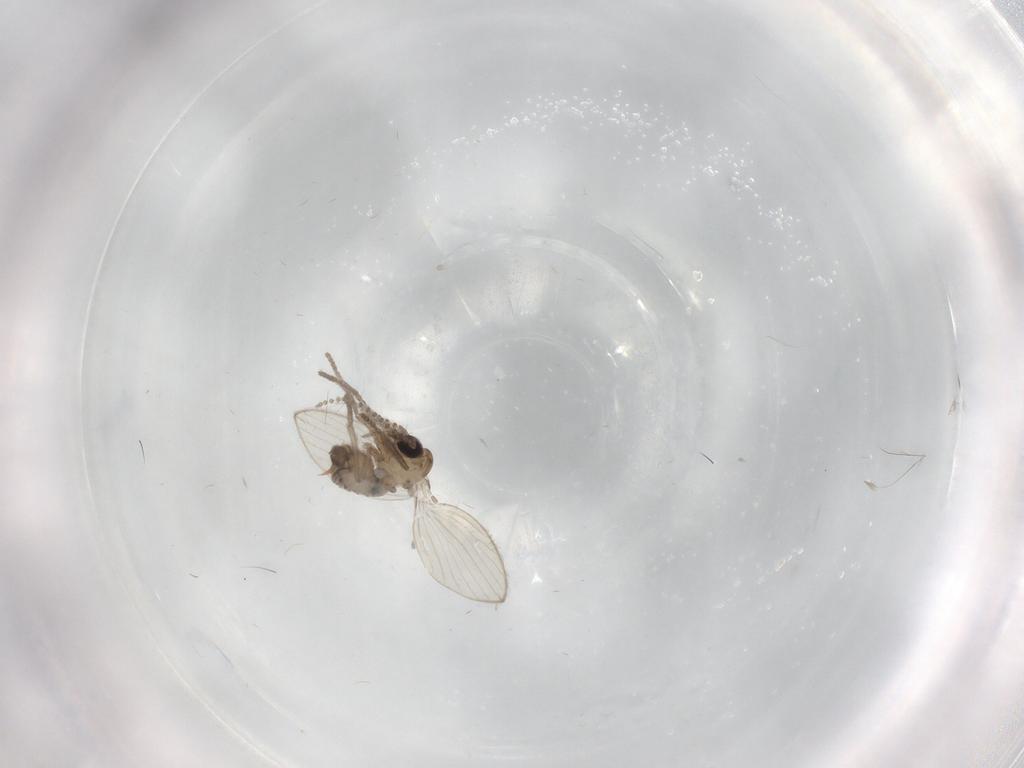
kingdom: Animalia
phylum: Arthropoda
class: Insecta
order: Diptera
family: Psychodidae
